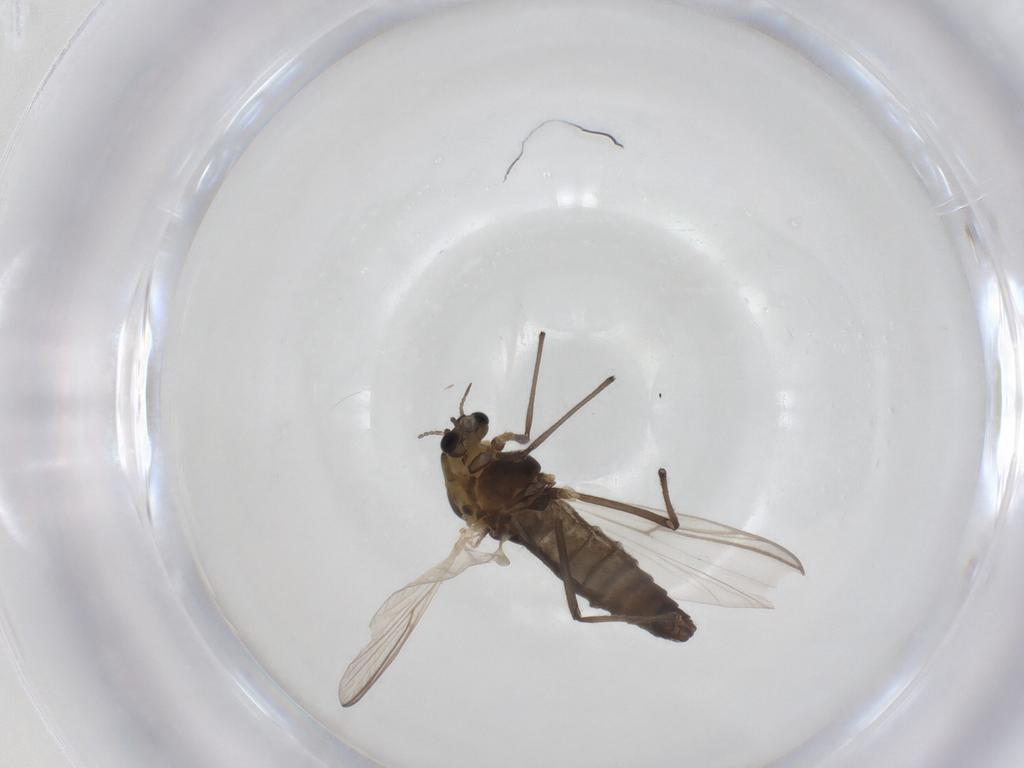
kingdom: Animalia
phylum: Arthropoda
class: Insecta
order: Diptera
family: Chironomidae
